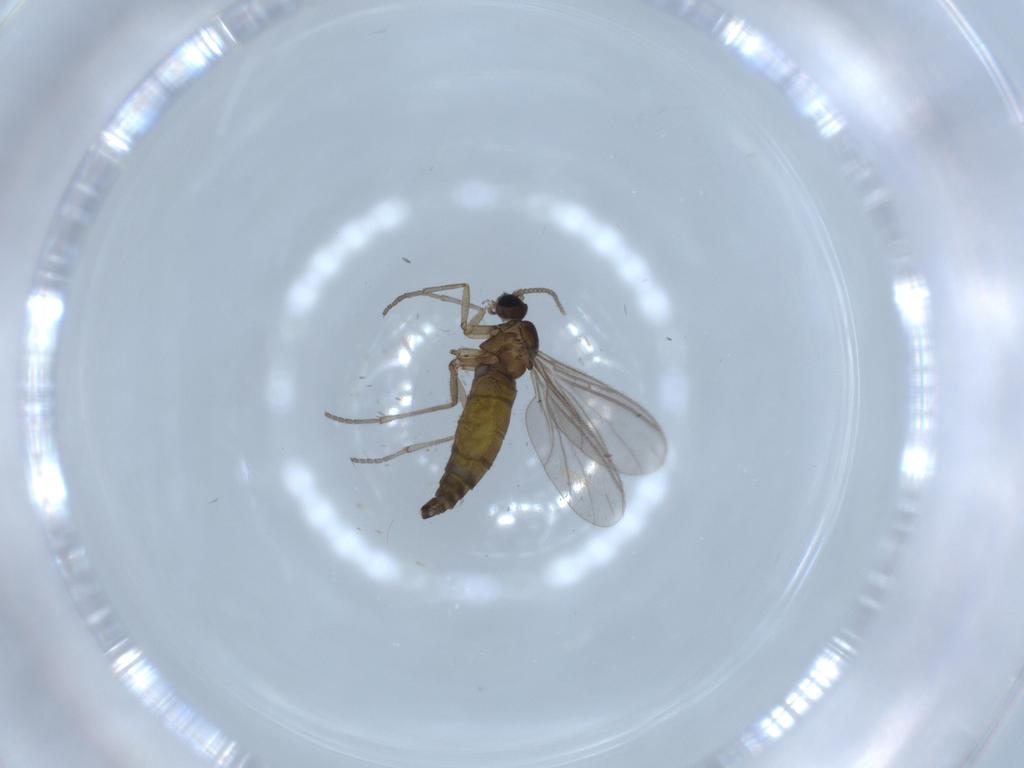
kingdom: Animalia
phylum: Arthropoda
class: Insecta
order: Diptera
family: Sciaridae
